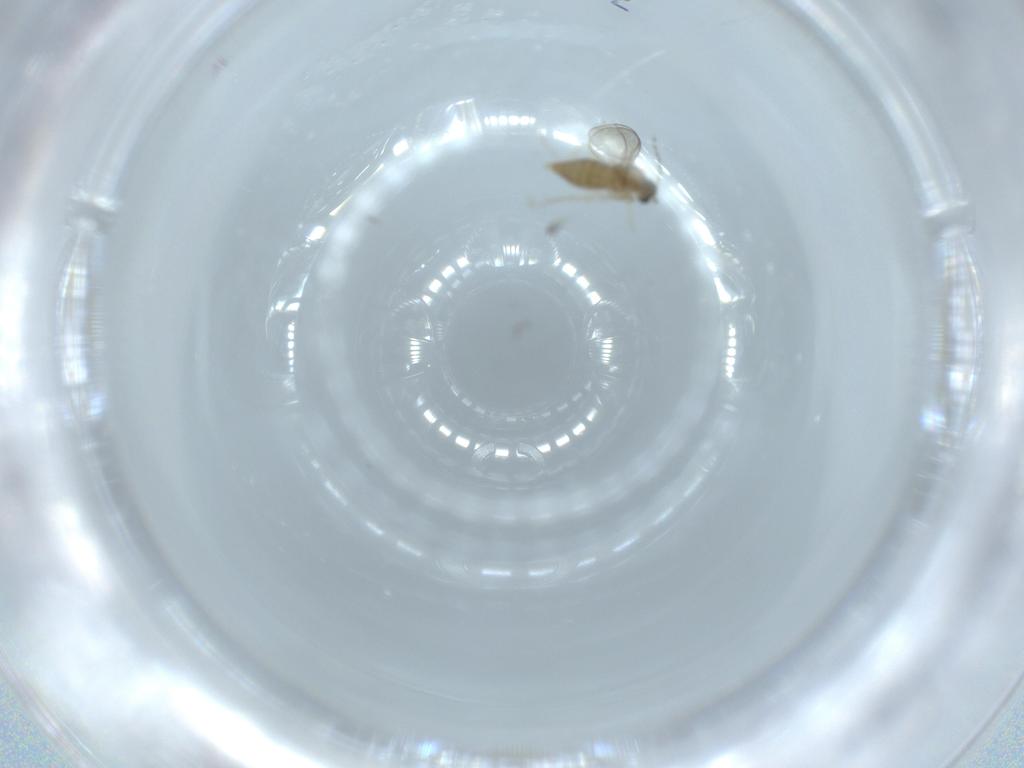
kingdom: Animalia
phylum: Arthropoda
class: Insecta
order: Diptera
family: Cecidomyiidae
